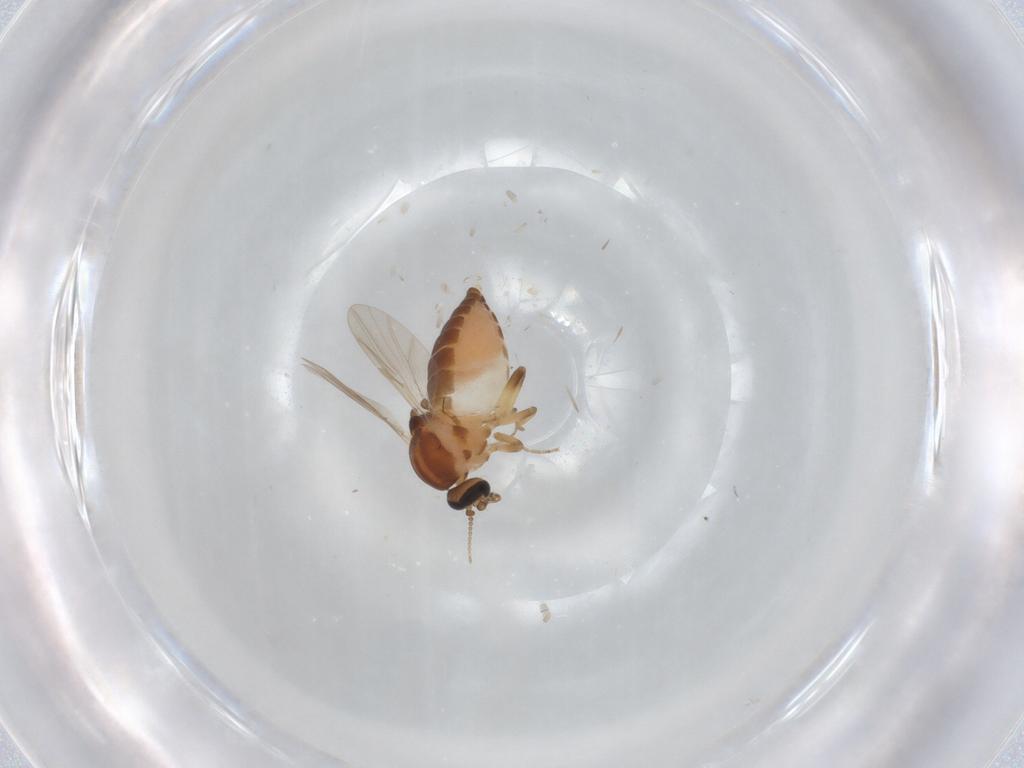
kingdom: Animalia
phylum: Arthropoda
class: Insecta
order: Diptera
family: Ceratopogonidae
